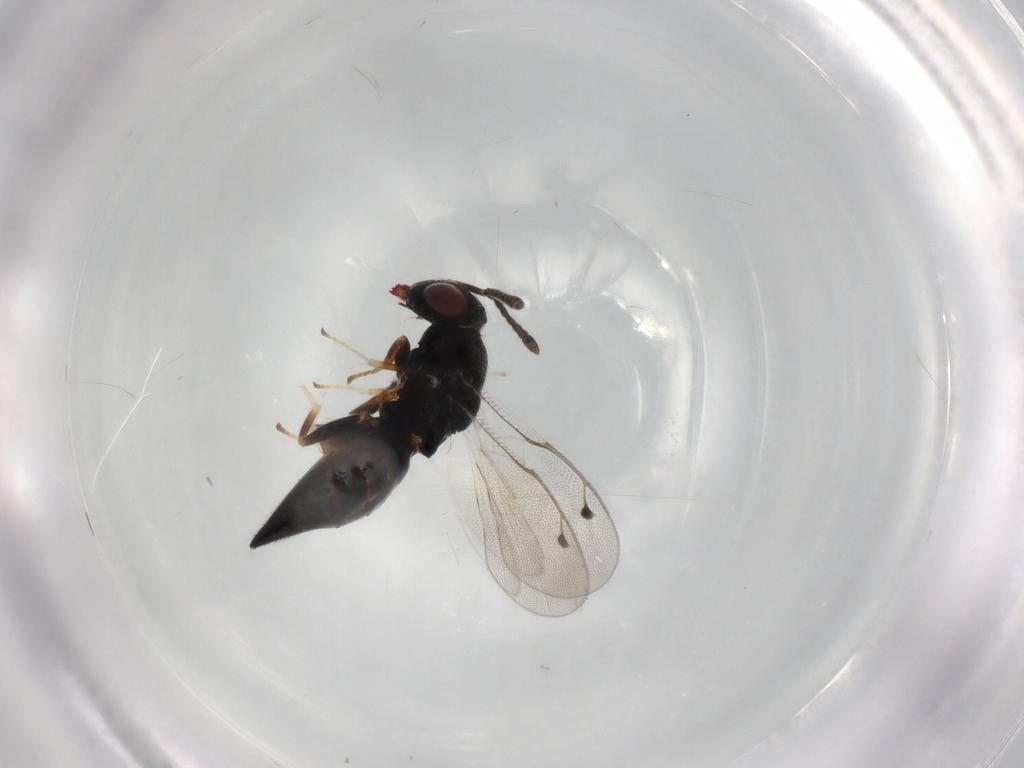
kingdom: Animalia
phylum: Arthropoda
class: Insecta
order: Hymenoptera
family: Pteromalidae
